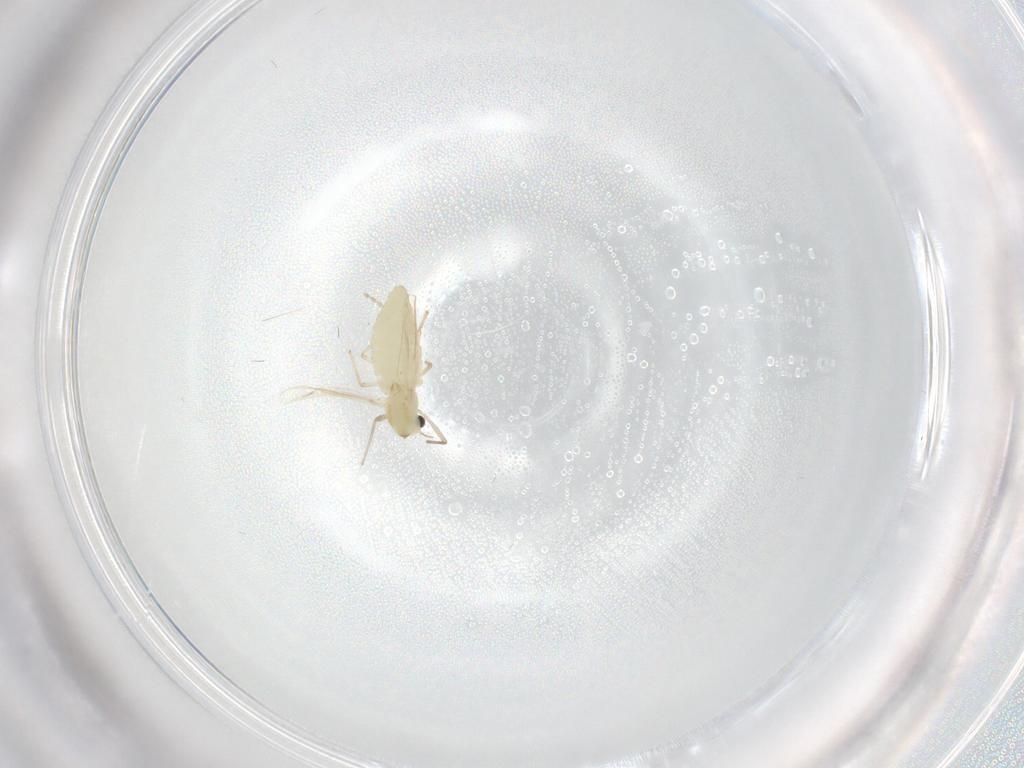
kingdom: Animalia
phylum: Arthropoda
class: Insecta
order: Diptera
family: Chironomidae
